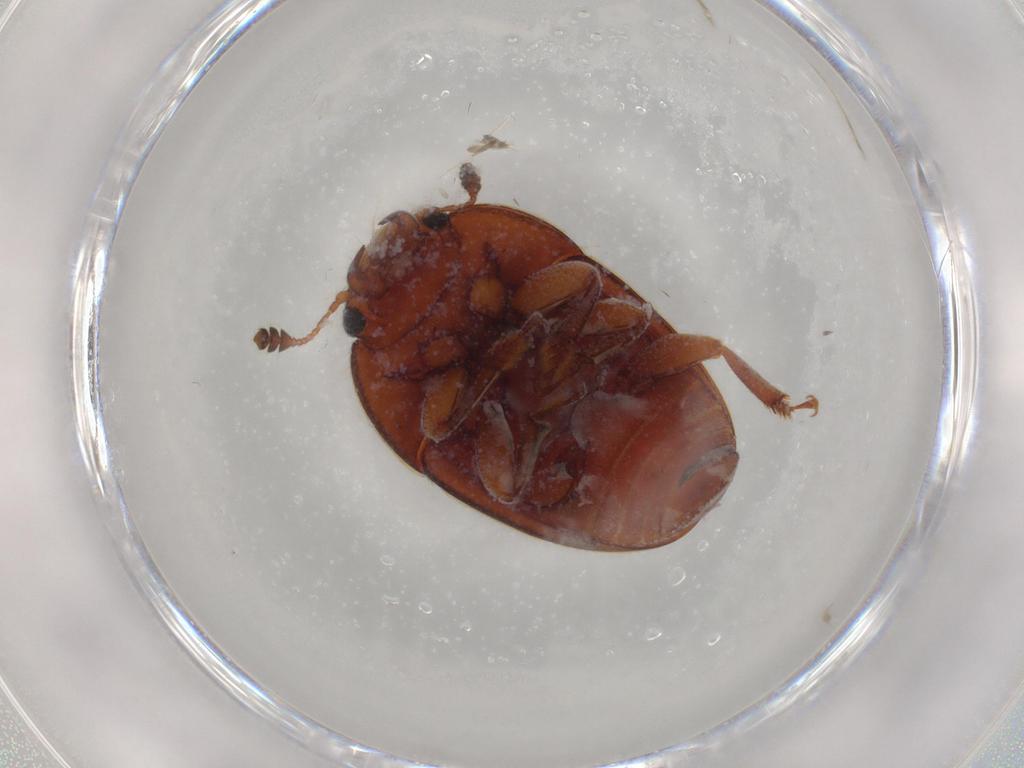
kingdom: Animalia
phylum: Arthropoda
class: Insecta
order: Coleoptera
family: Nitidulidae
